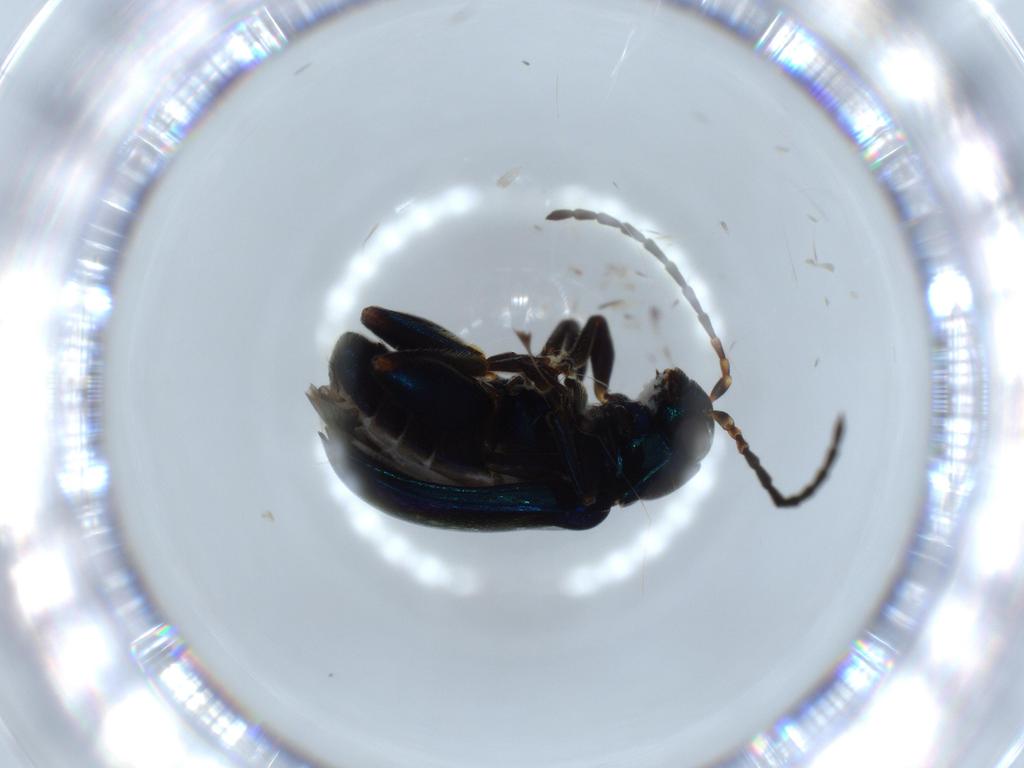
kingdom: Animalia
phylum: Arthropoda
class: Insecta
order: Coleoptera
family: Chrysomelidae
